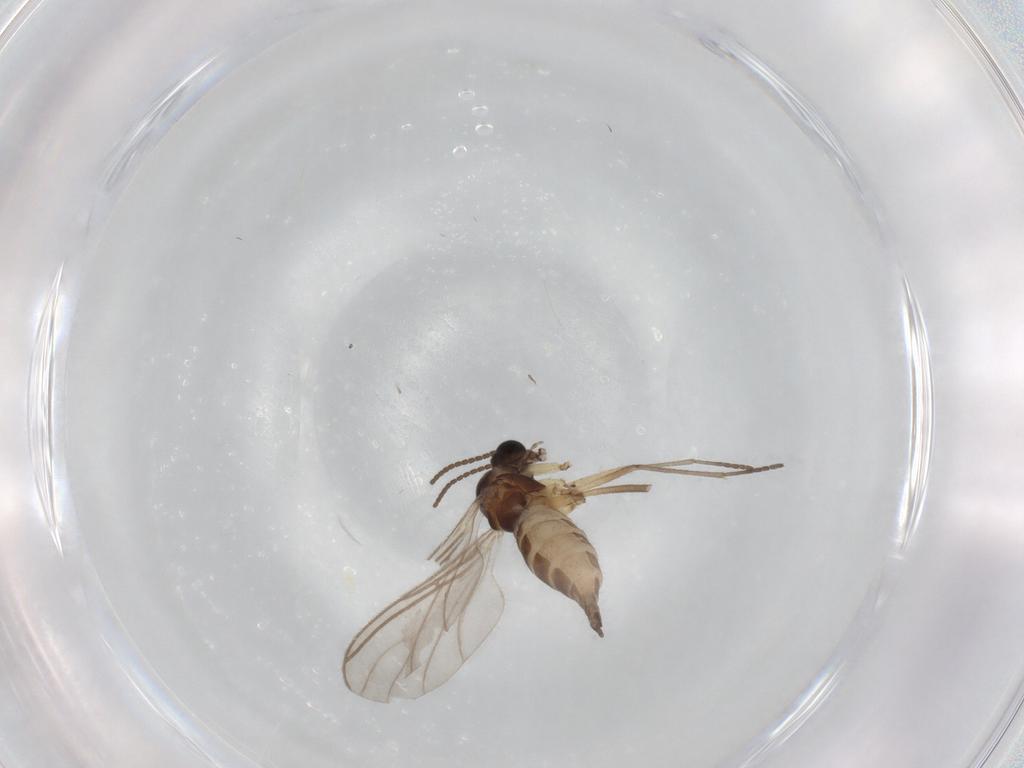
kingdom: Animalia
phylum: Arthropoda
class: Insecta
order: Diptera
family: Sciaridae
